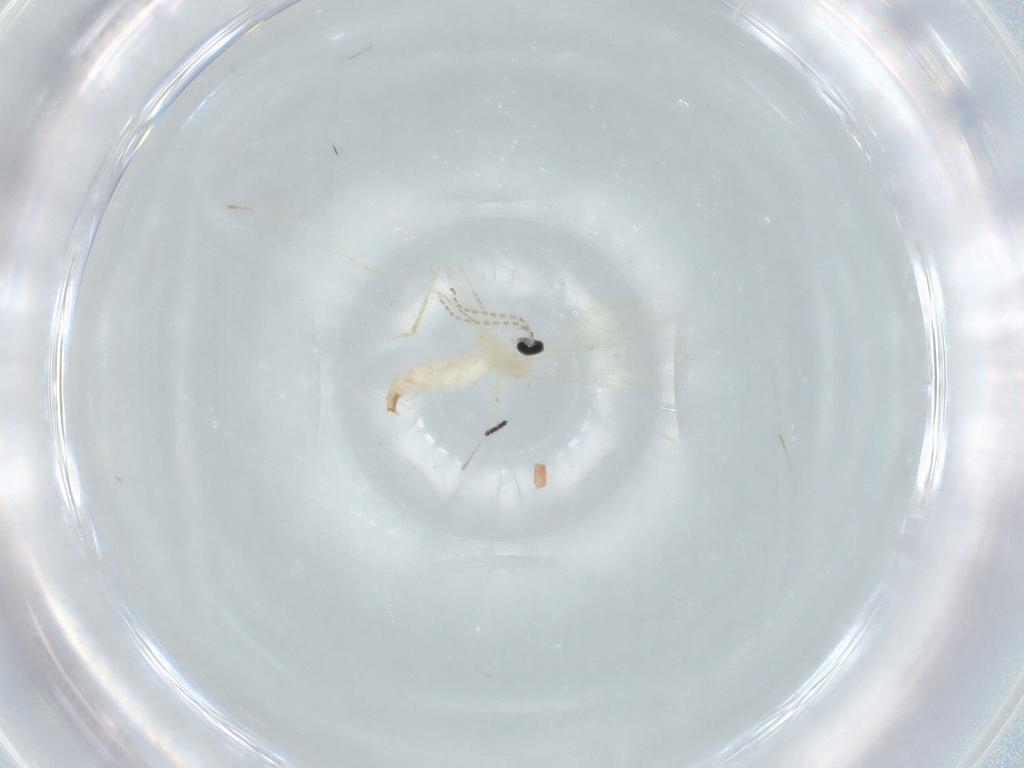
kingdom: Animalia
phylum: Arthropoda
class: Insecta
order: Diptera
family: Cecidomyiidae
